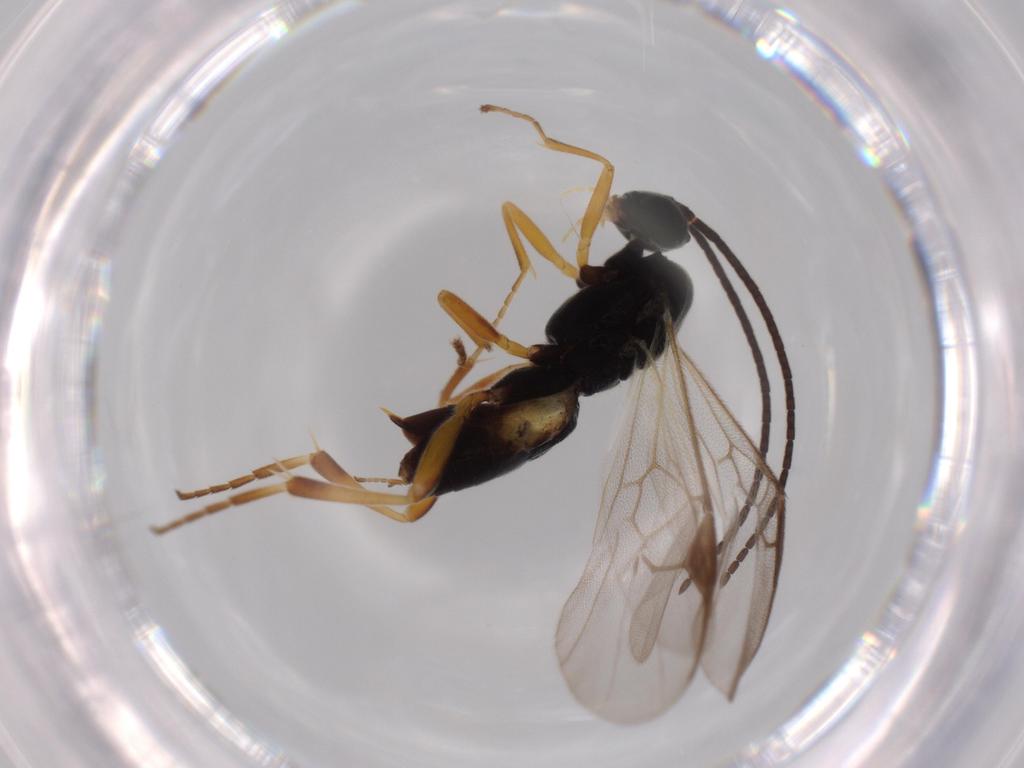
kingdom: Animalia
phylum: Arthropoda
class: Insecta
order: Hymenoptera
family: Braconidae
